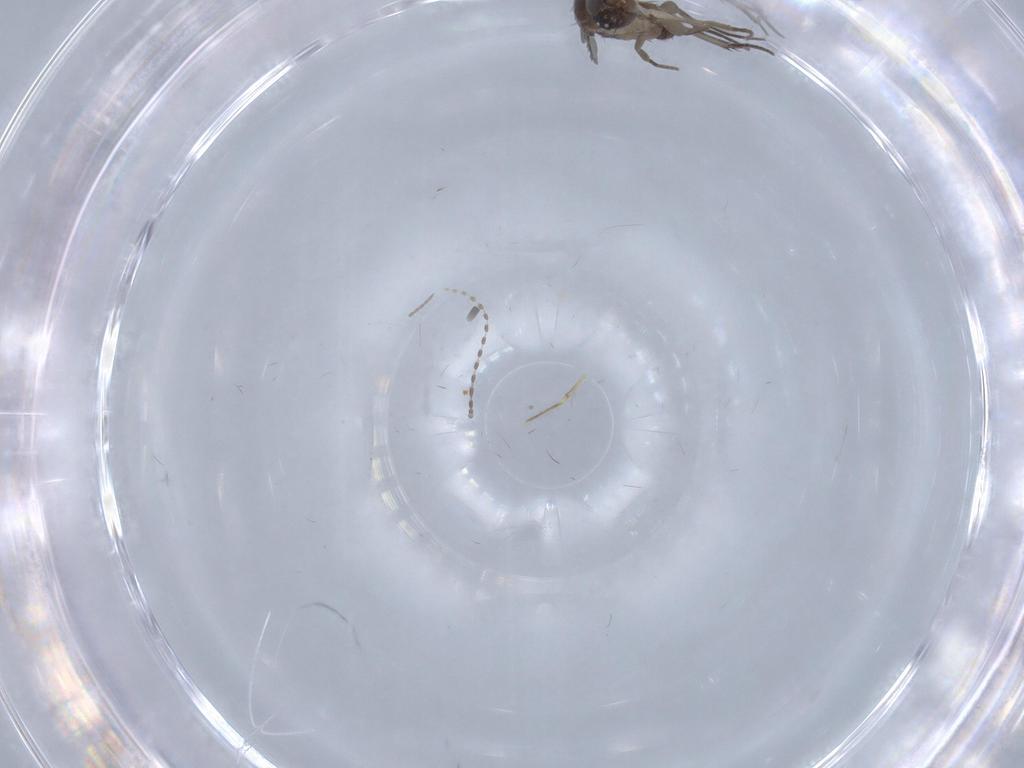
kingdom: Animalia
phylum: Arthropoda
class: Insecta
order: Diptera
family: Phoridae
